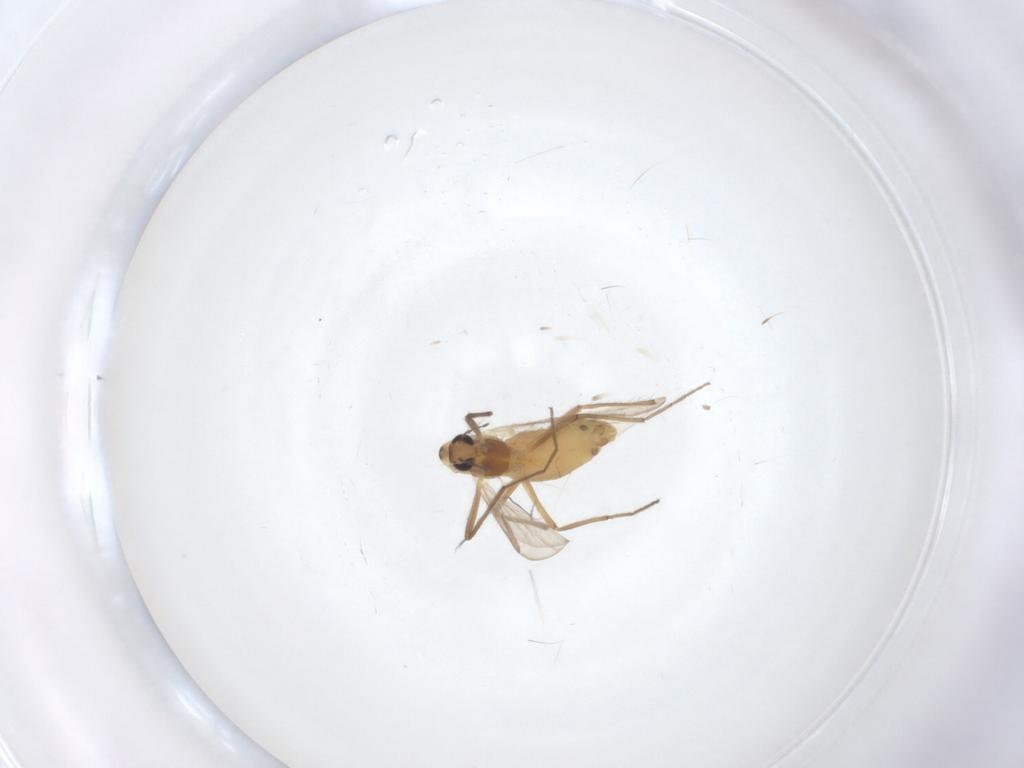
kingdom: Animalia
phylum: Arthropoda
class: Insecta
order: Diptera
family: Chironomidae
